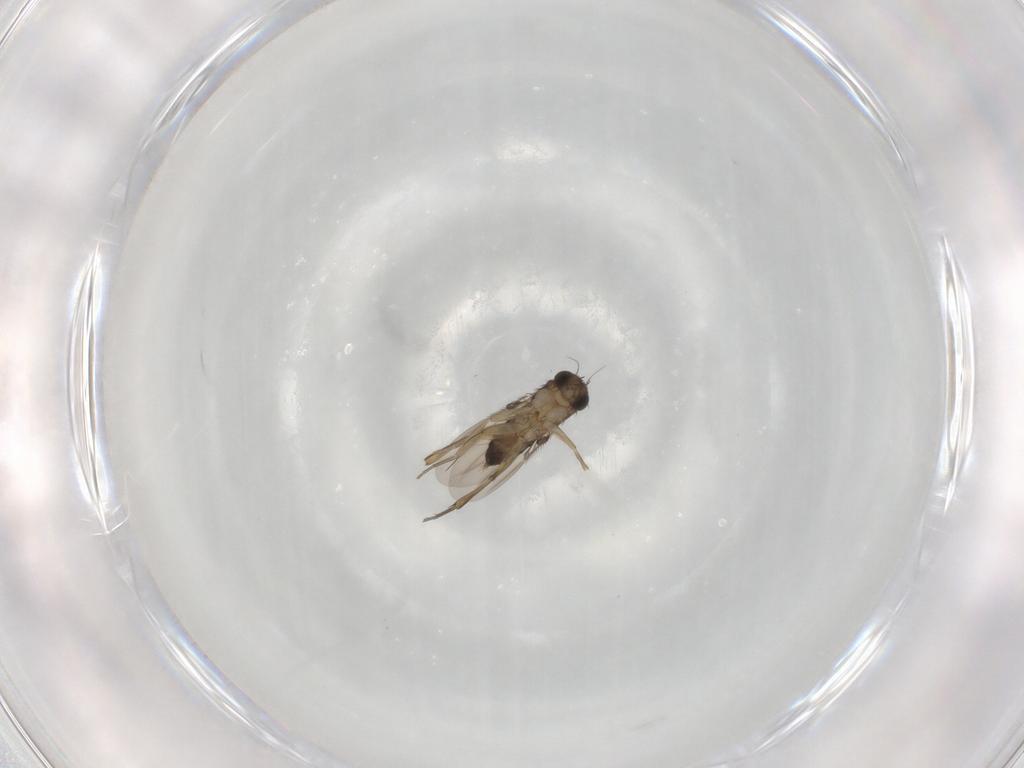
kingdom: Animalia
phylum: Arthropoda
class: Insecta
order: Diptera
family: Phoridae
